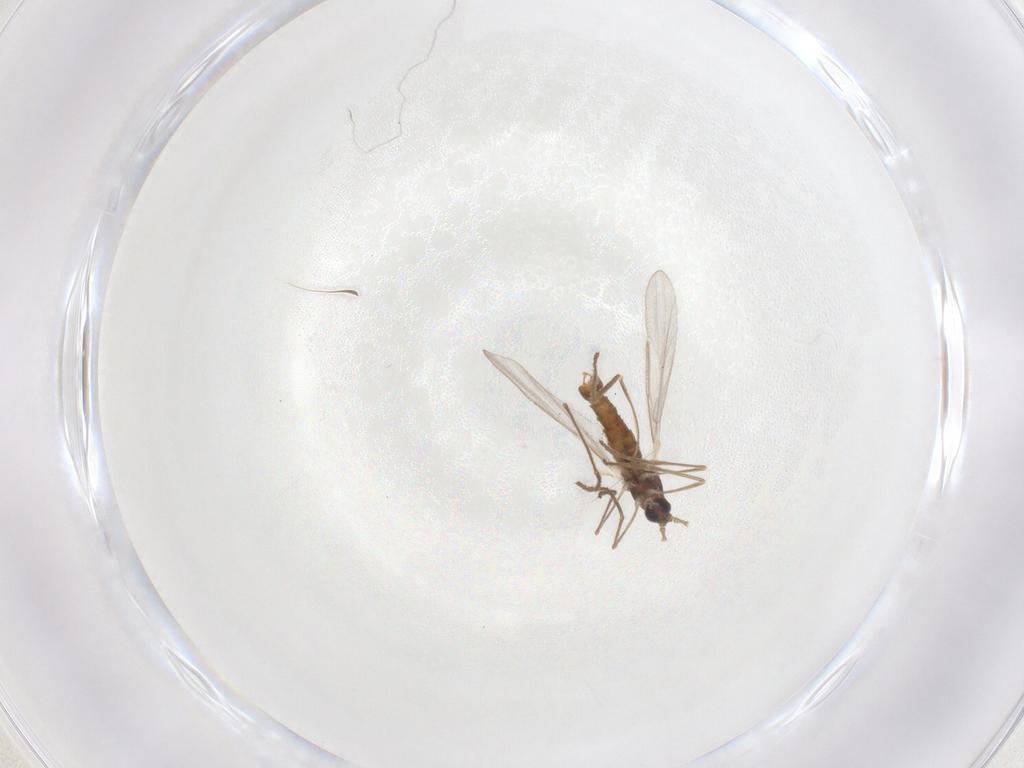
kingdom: Animalia
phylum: Arthropoda
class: Insecta
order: Diptera
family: Cecidomyiidae
